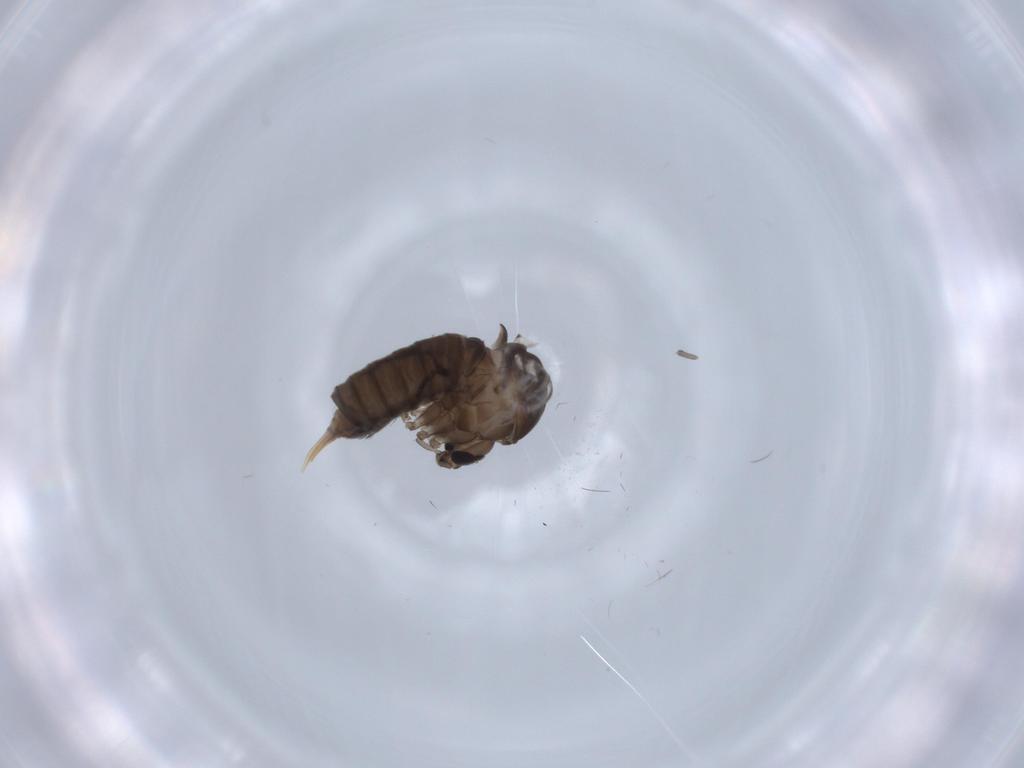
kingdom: Animalia
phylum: Arthropoda
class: Insecta
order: Diptera
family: Psychodidae
